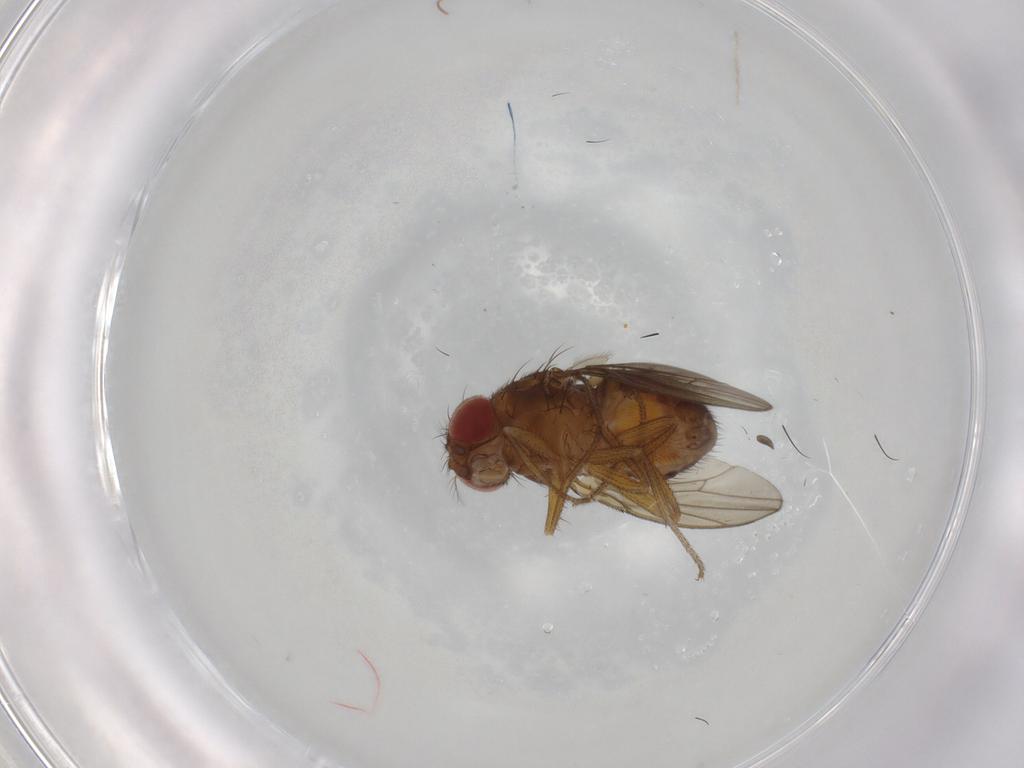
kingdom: Animalia
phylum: Arthropoda
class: Insecta
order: Diptera
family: Drosophilidae
